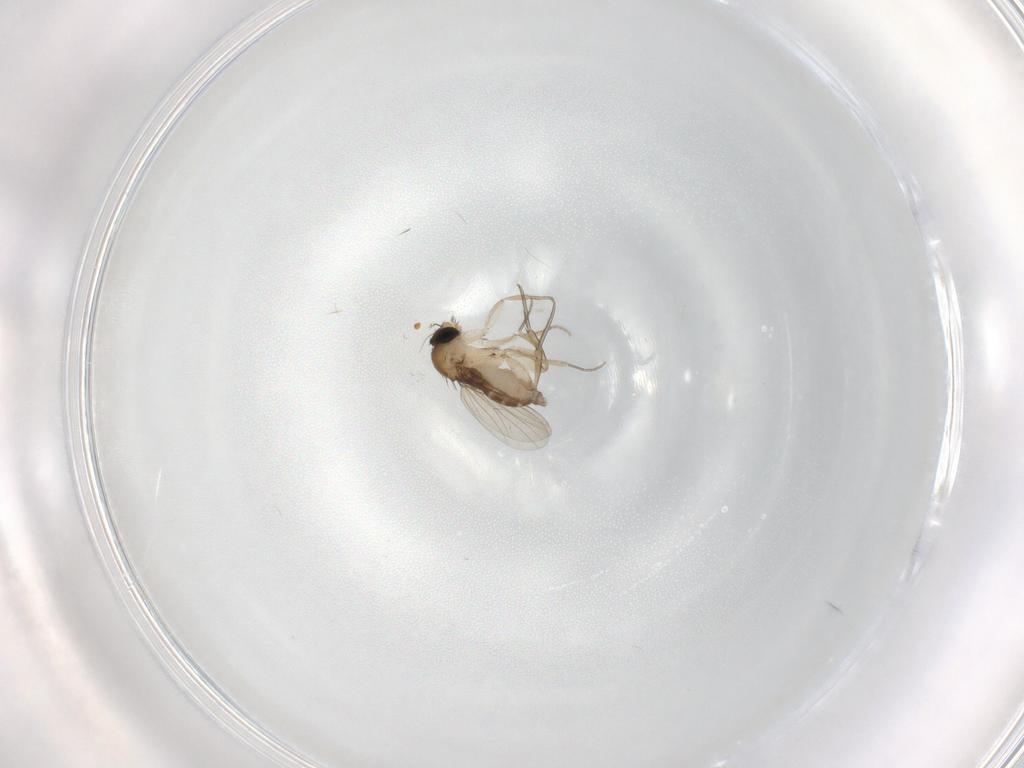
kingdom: Animalia
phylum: Arthropoda
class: Insecta
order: Diptera
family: Phoridae
